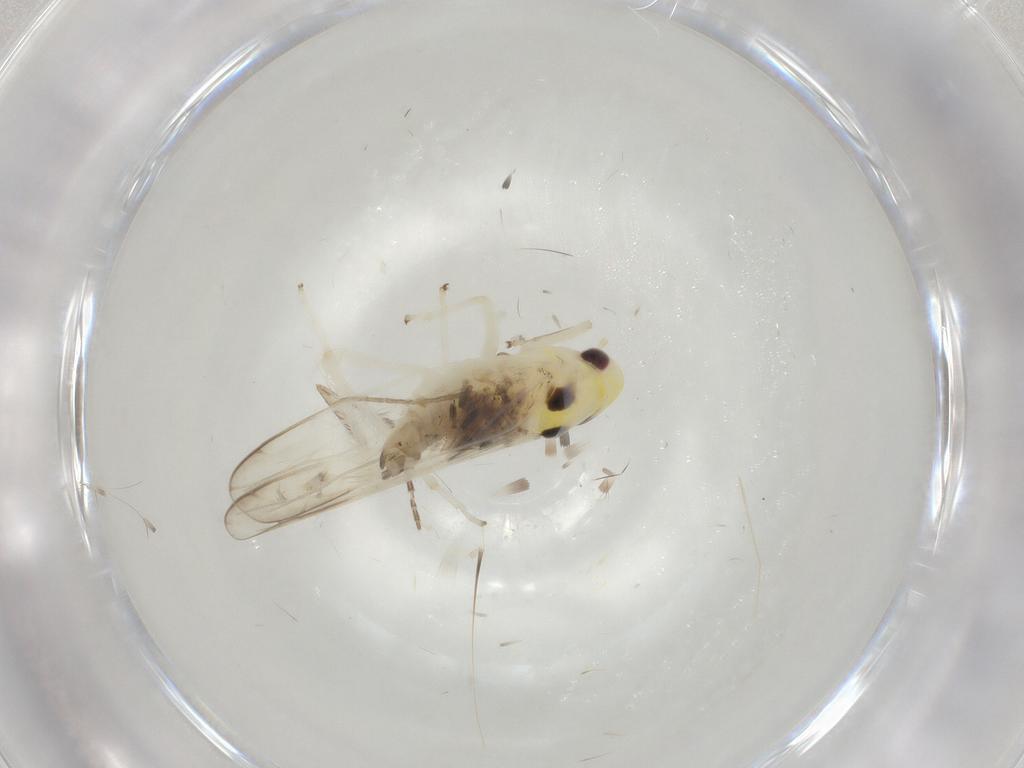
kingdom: Animalia
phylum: Arthropoda
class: Insecta
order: Hemiptera
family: Cicadellidae
